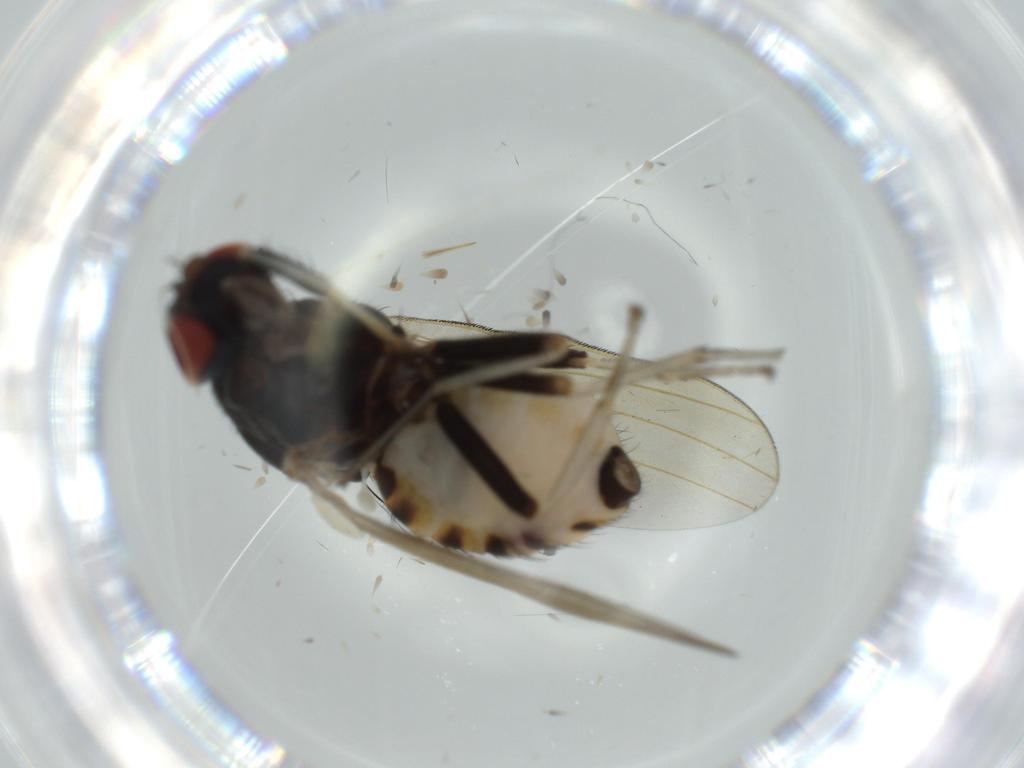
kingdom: Animalia
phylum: Arthropoda
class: Insecta
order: Diptera
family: Lauxaniidae
